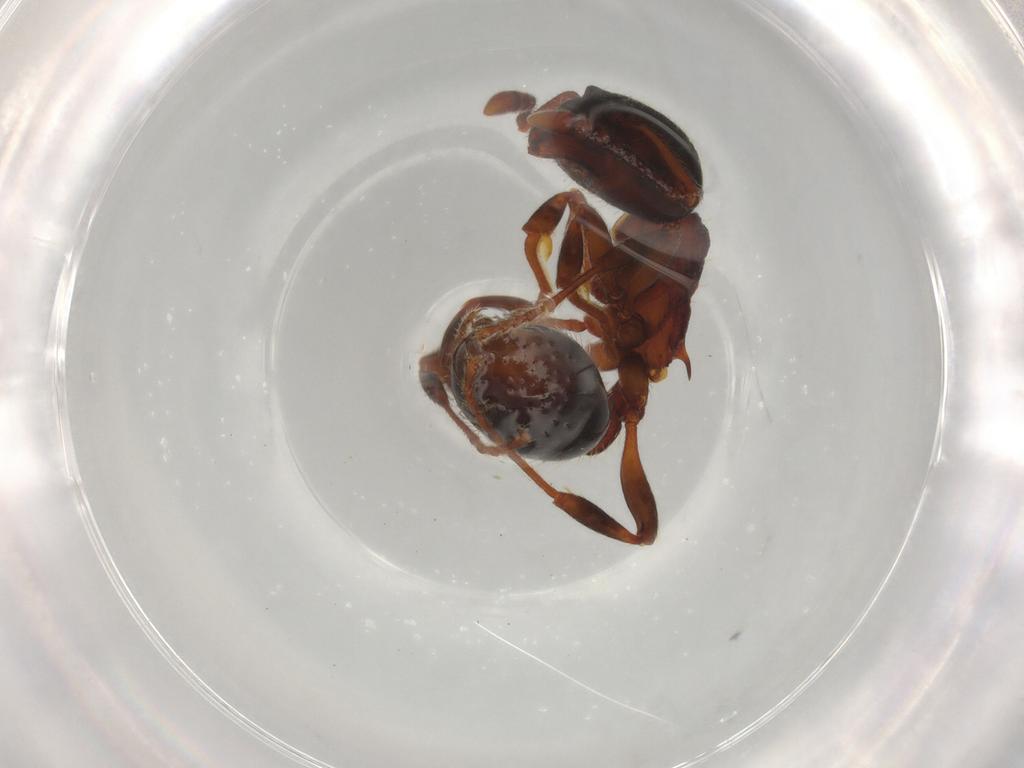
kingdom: Animalia
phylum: Arthropoda
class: Insecta
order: Hymenoptera
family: Formicidae
